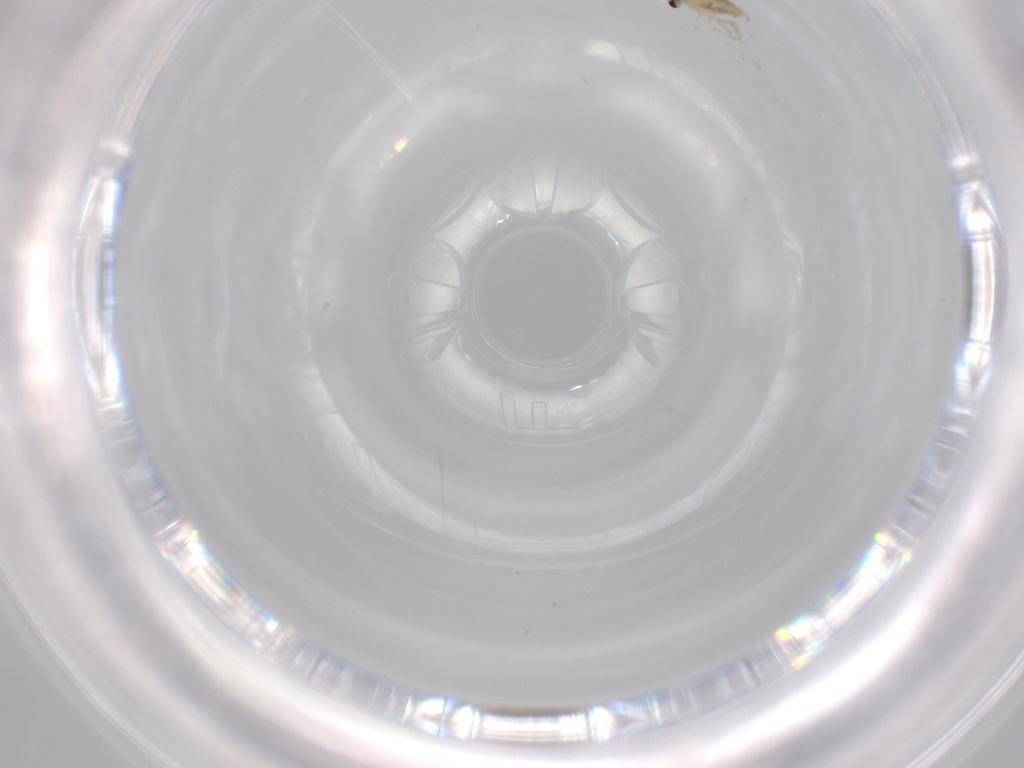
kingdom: Animalia
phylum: Arthropoda
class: Insecta
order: Diptera
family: Cecidomyiidae
